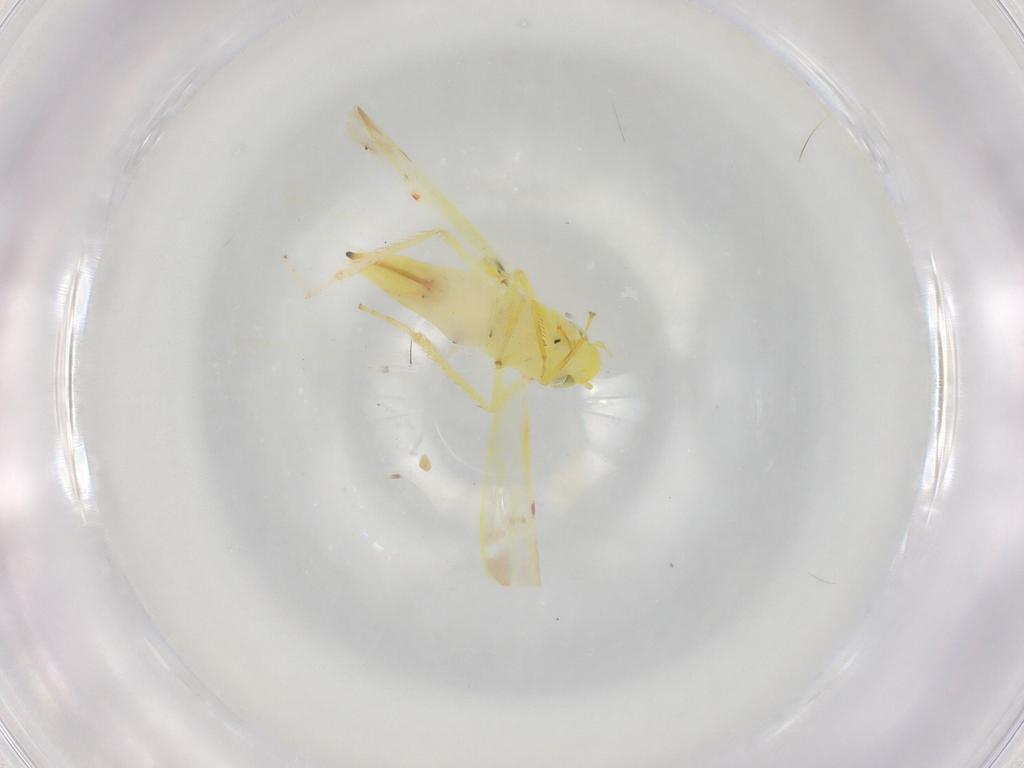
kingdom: Animalia
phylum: Arthropoda
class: Insecta
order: Hemiptera
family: Cicadellidae
